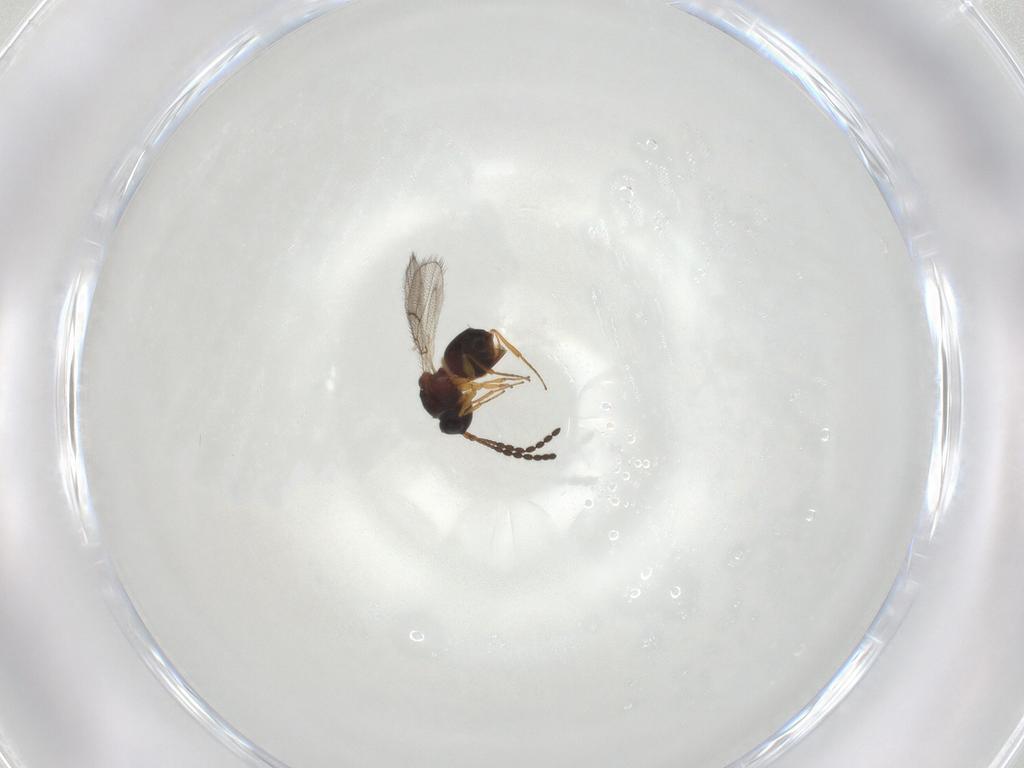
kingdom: Animalia
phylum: Arthropoda
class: Insecta
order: Hymenoptera
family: Figitidae
